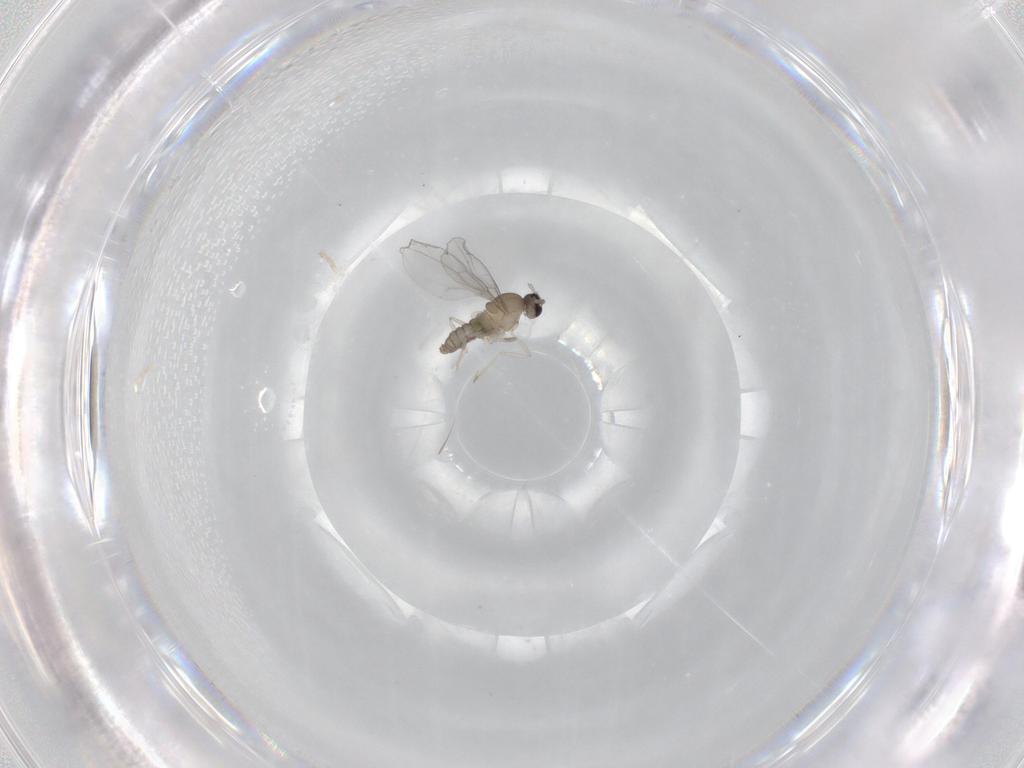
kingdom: Animalia
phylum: Arthropoda
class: Insecta
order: Diptera
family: Cecidomyiidae
